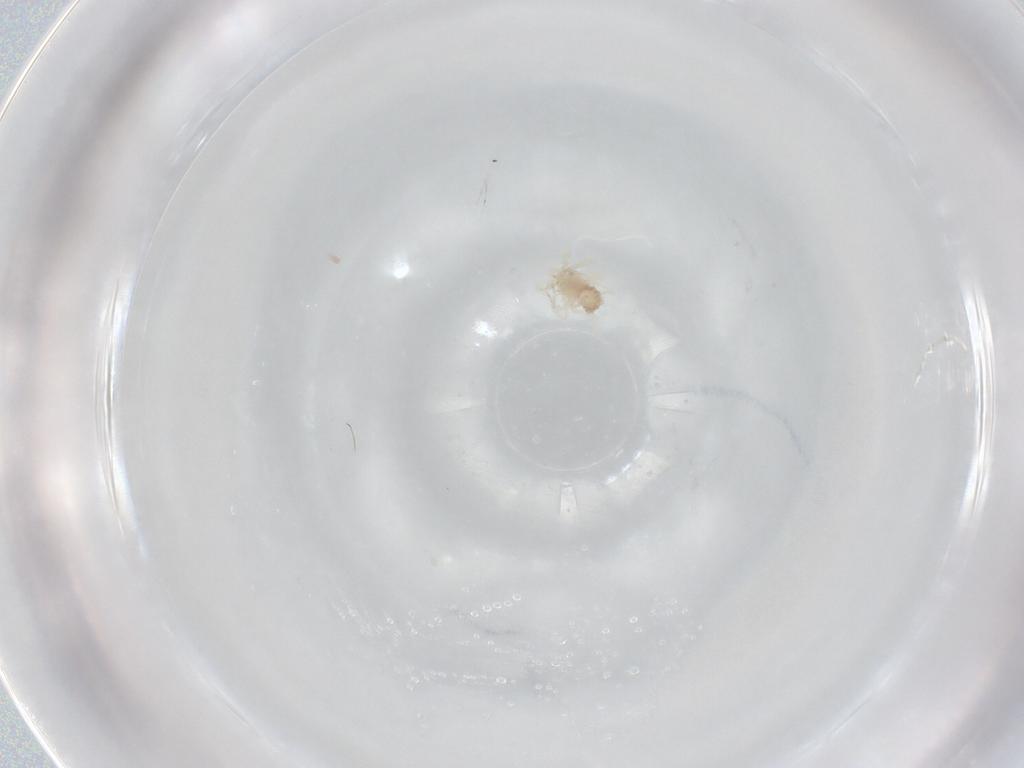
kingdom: Animalia
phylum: Arthropoda
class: Arachnida
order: Trombidiformes
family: Anystidae
